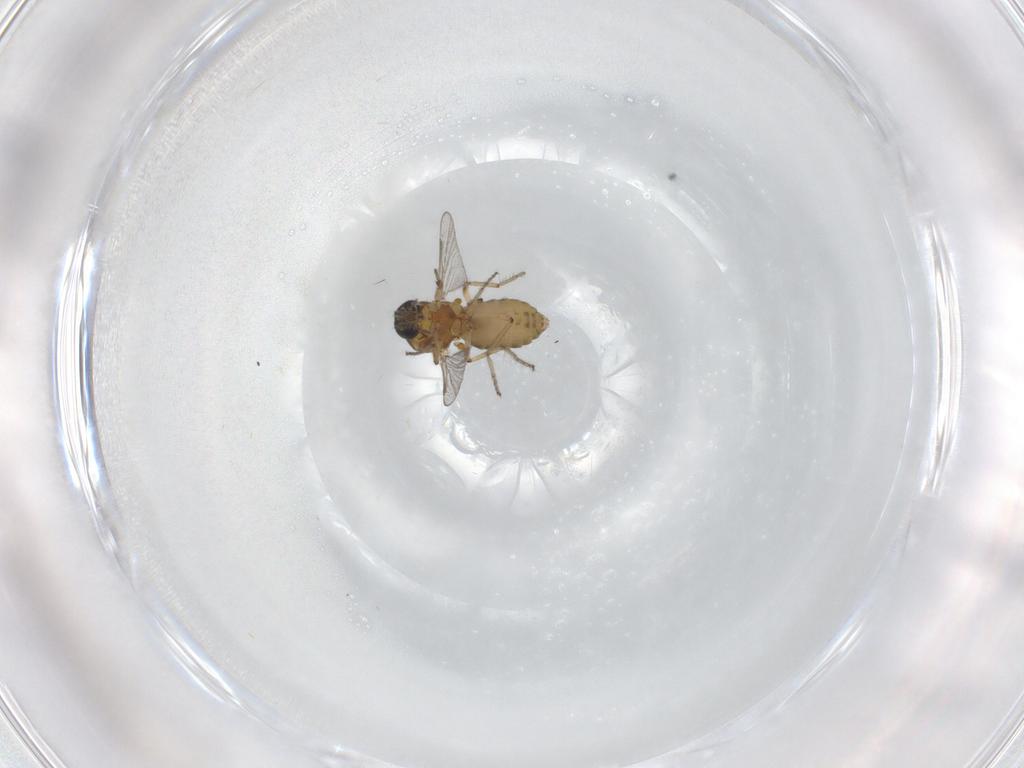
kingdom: Animalia
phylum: Arthropoda
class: Insecta
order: Diptera
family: Ceratopogonidae
